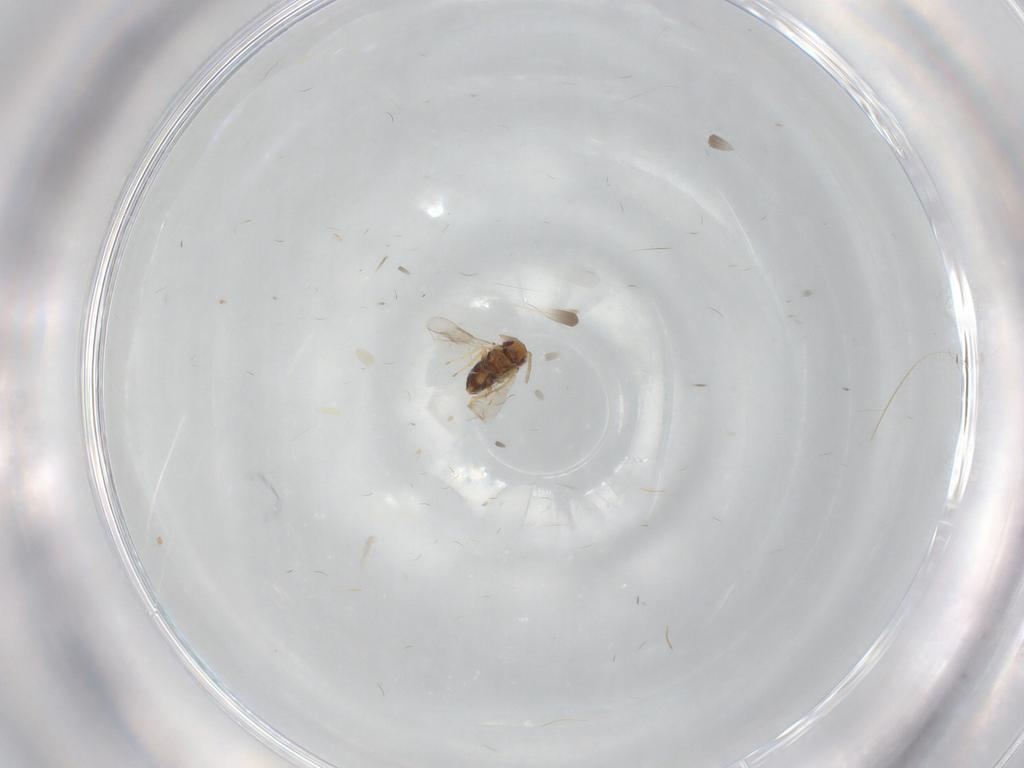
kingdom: Animalia
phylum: Arthropoda
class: Insecta
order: Hymenoptera
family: Aphelinidae
